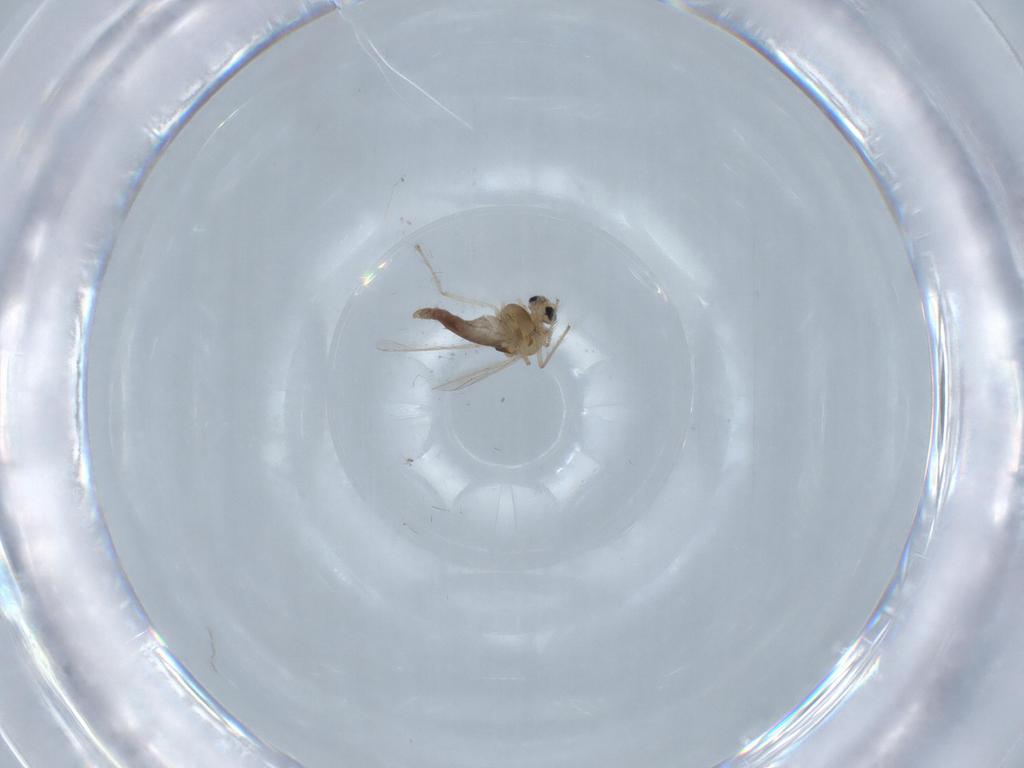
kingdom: Animalia
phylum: Arthropoda
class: Insecta
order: Diptera
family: Chironomidae
